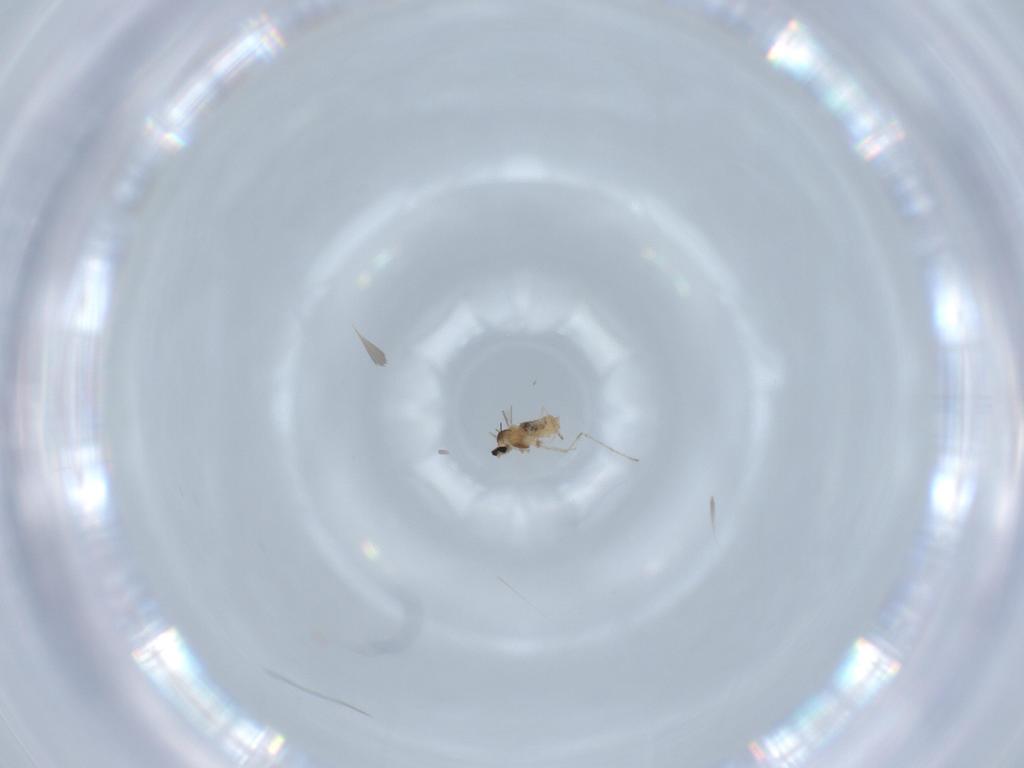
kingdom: Animalia
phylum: Arthropoda
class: Insecta
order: Diptera
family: Cecidomyiidae
